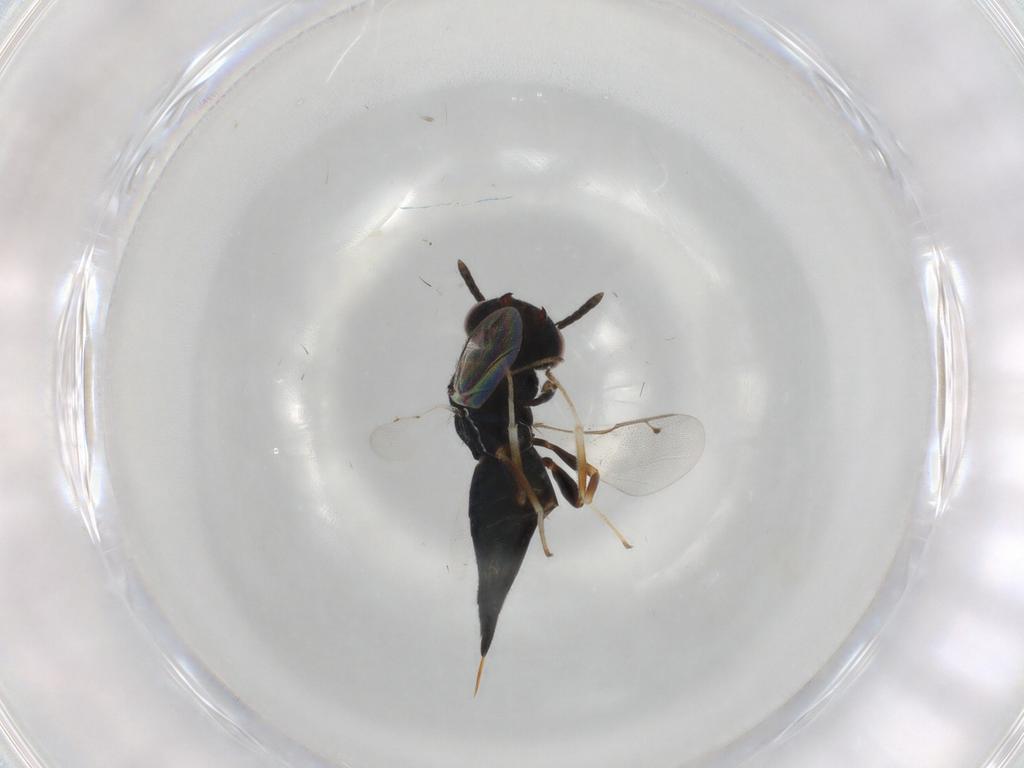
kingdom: Animalia
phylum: Arthropoda
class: Insecta
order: Hymenoptera
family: Pteromalidae
